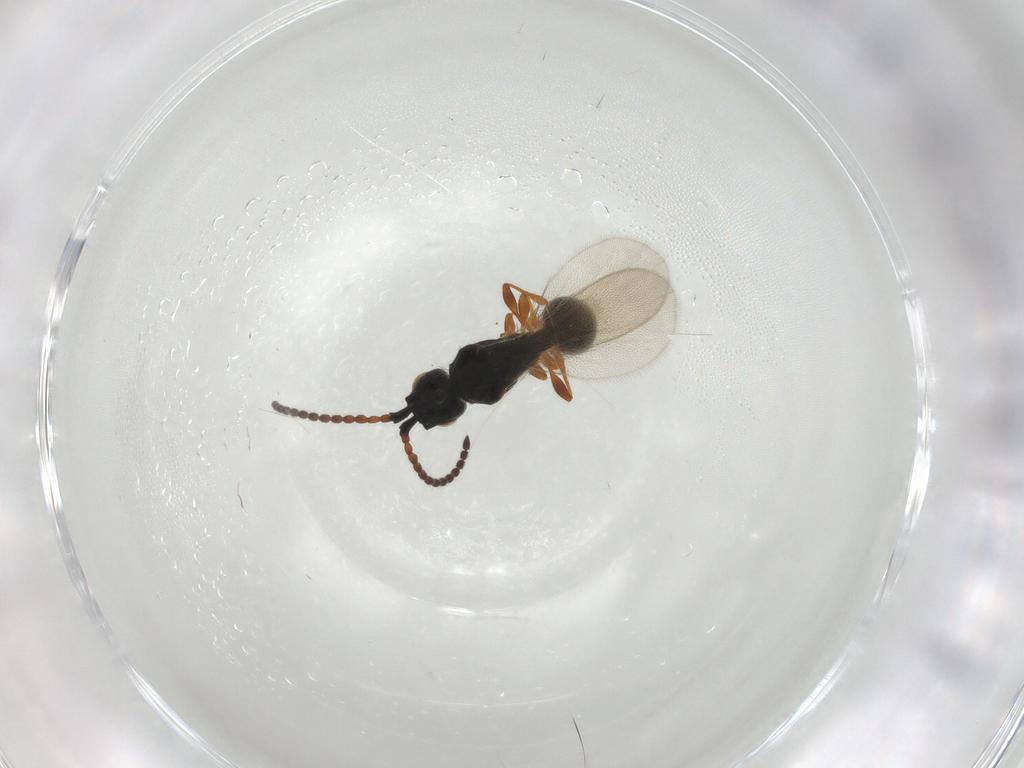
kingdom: Animalia
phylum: Arthropoda
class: Insecta
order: Hymenoptera
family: Diapriidae
